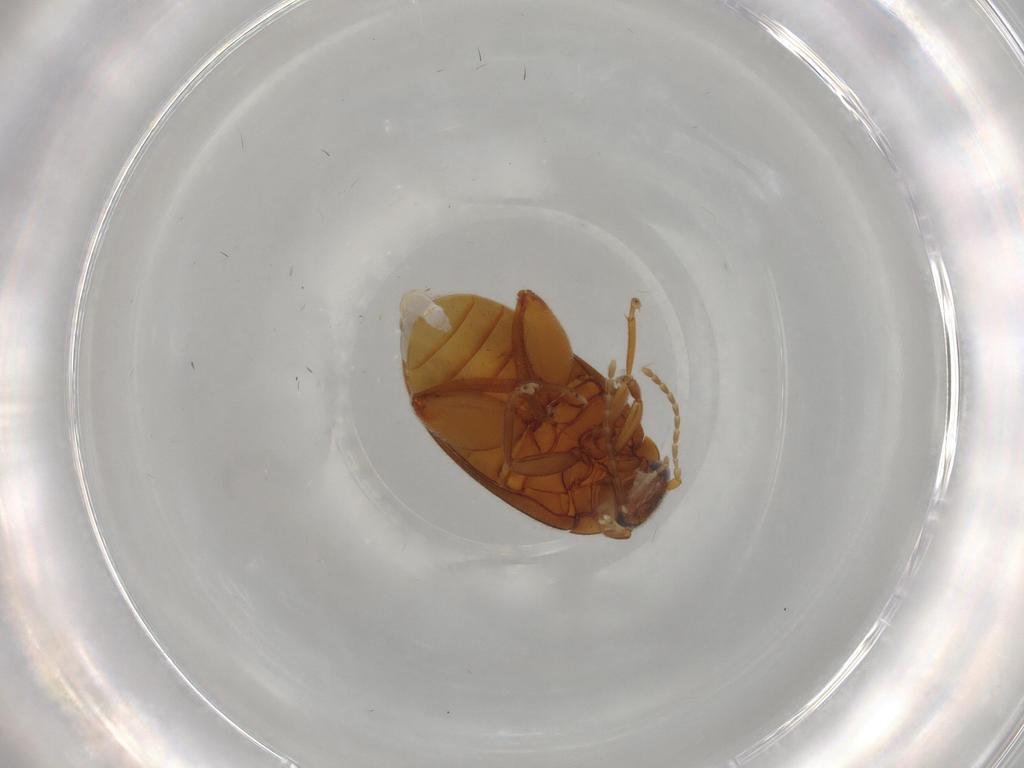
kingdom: Animalia
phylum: Arthropoda
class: Insecta
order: Coleoptera
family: Scirtidae
